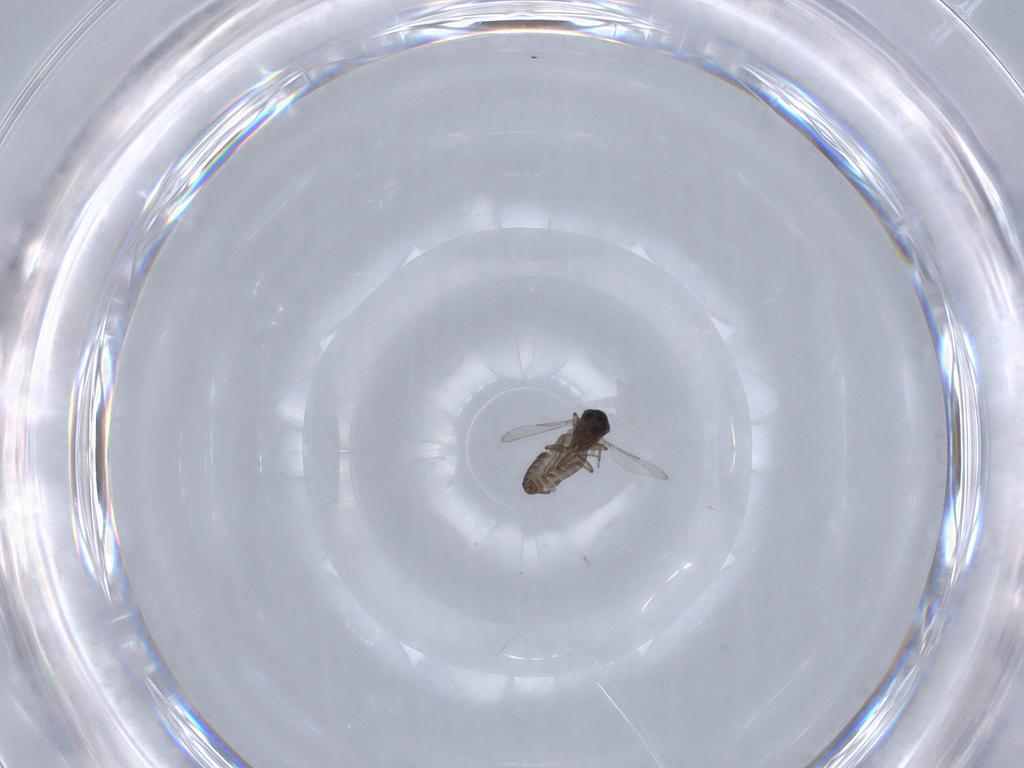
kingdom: Animalia
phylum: Arthropoda
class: Insecta
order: Diptera
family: Ceratopogonidae
